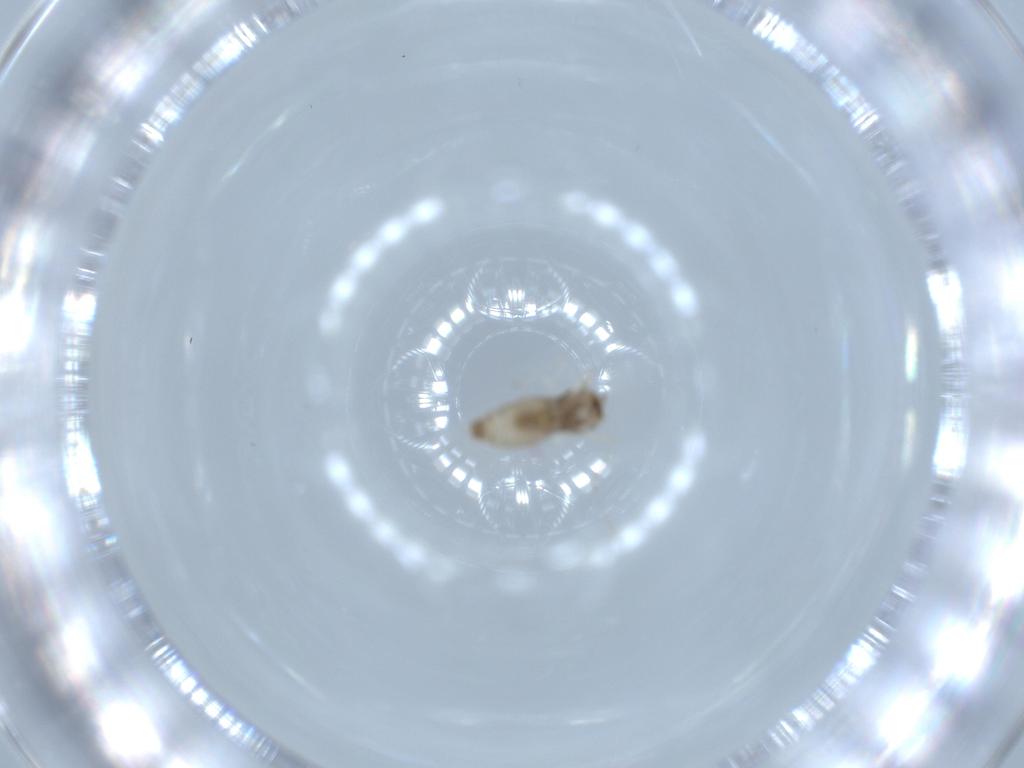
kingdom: Animalia
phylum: Arthropoda
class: Insecta
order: Diptera
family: Cecidomyiidae
